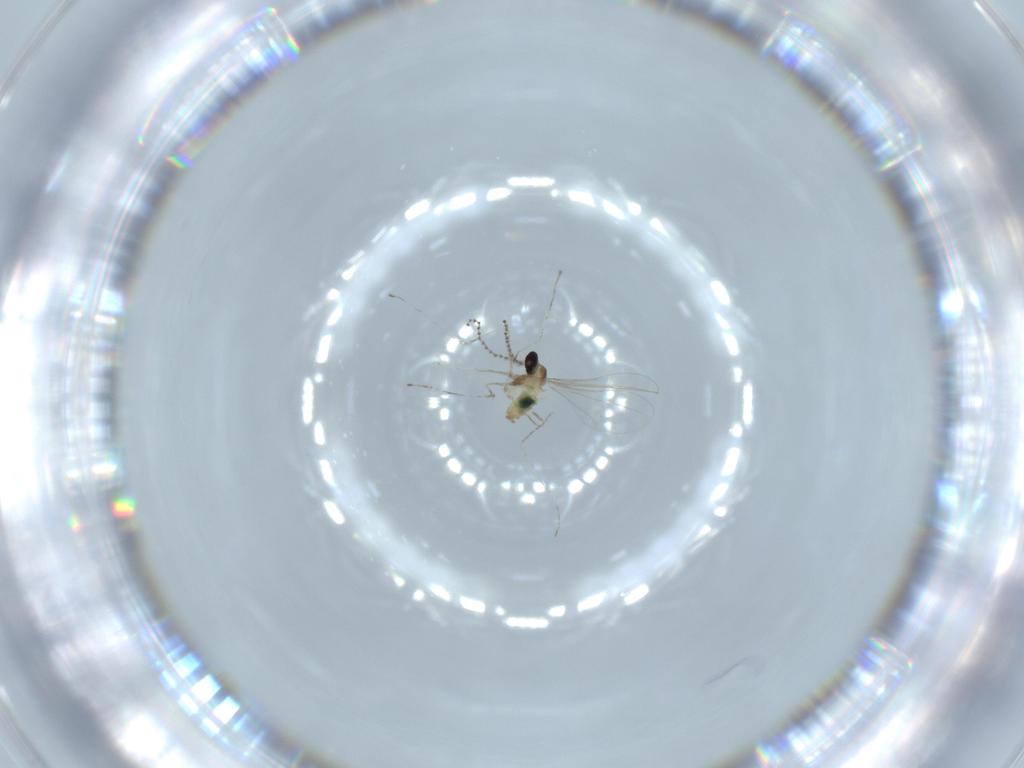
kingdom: Animalia
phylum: Arthropoda
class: Insecta
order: Diptera
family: Cecidomyiidae
